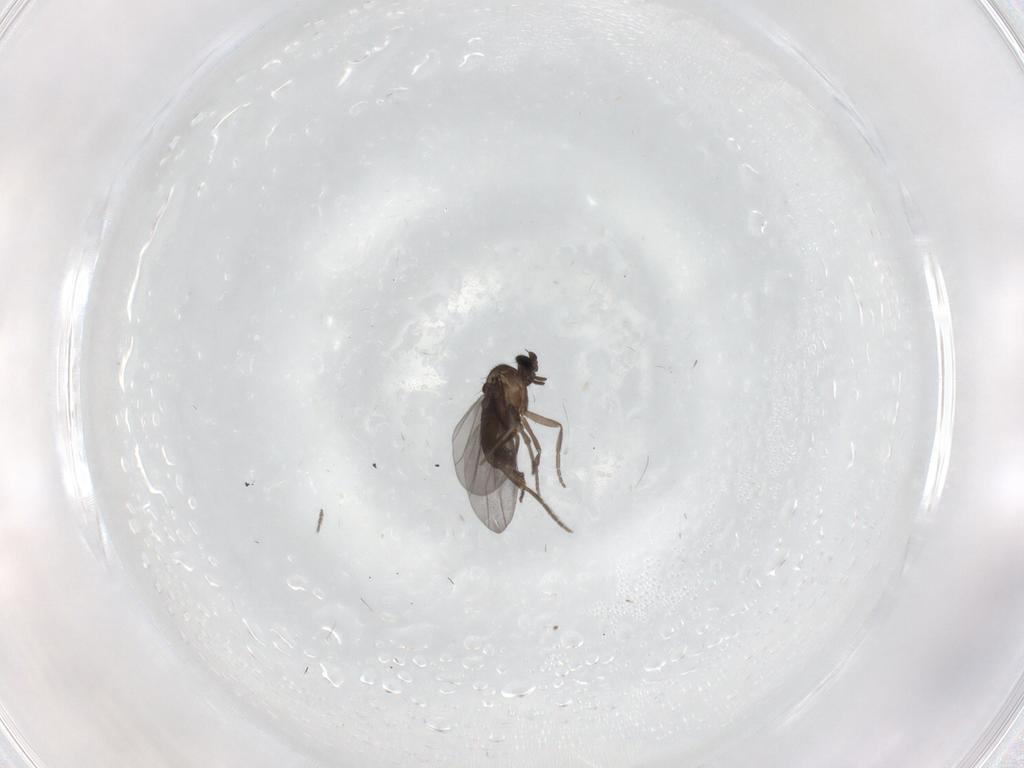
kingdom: Animalia
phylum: Arthropoda
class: Insecta
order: Diptera
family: Phoridae
